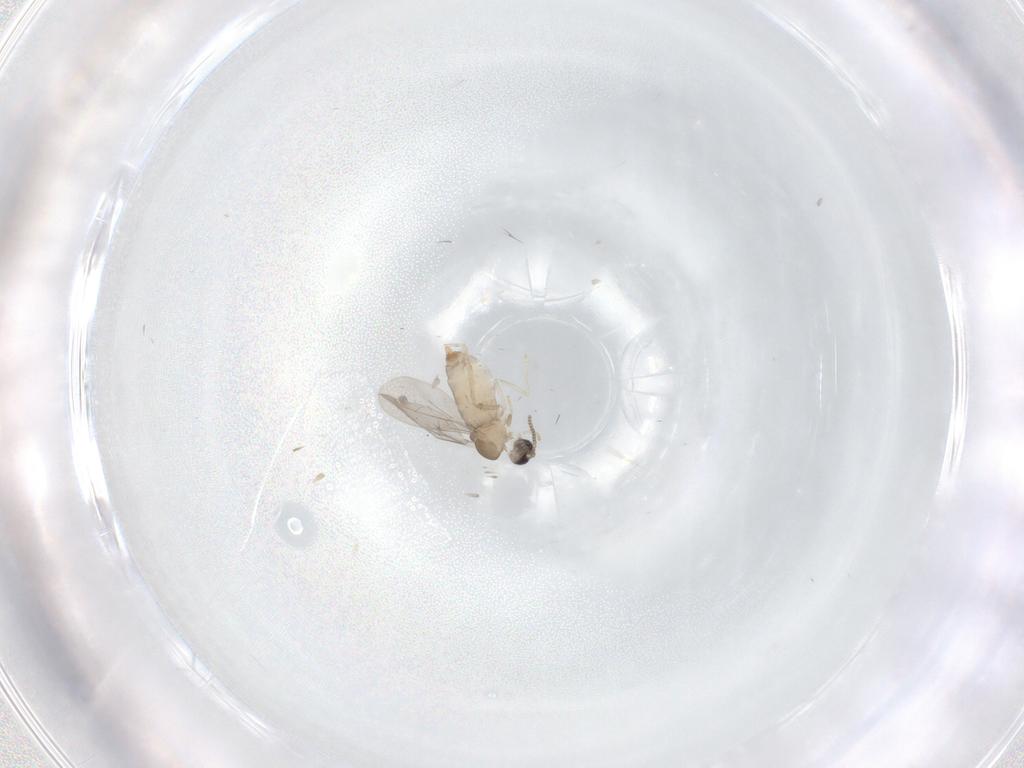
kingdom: Animalia
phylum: Arthropoda
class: Insecta
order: Diptera
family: Cecidomyiidae
